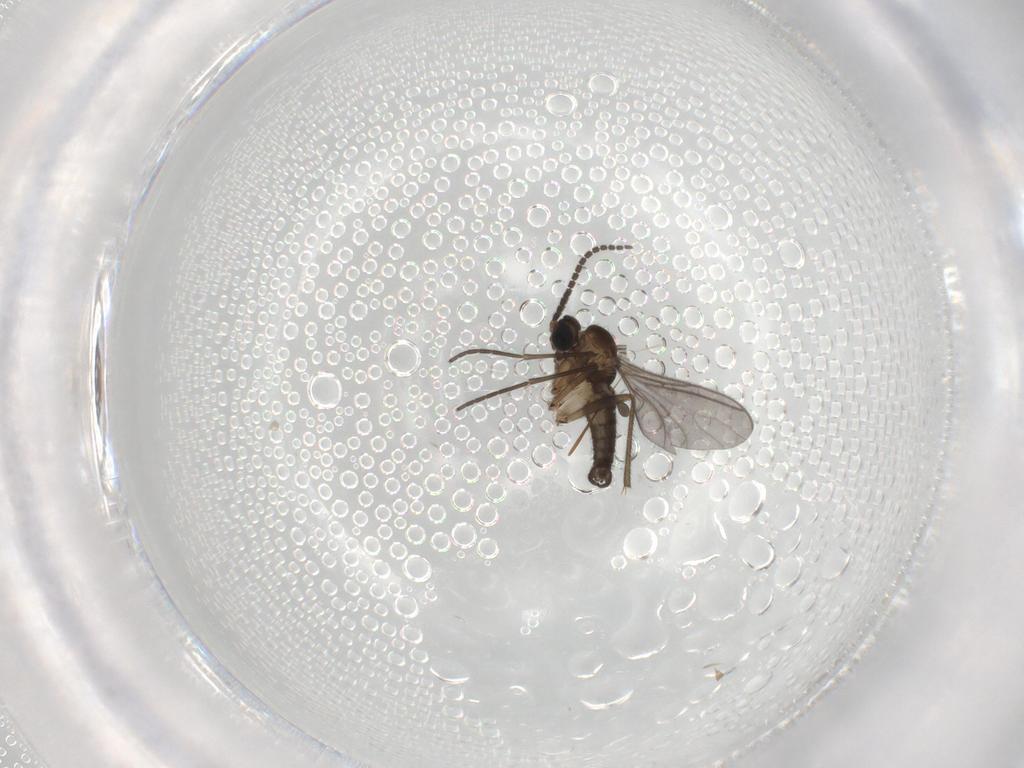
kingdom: Animalia
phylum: Arthropoda
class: Insecta
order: Diptera
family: Sciaridae
